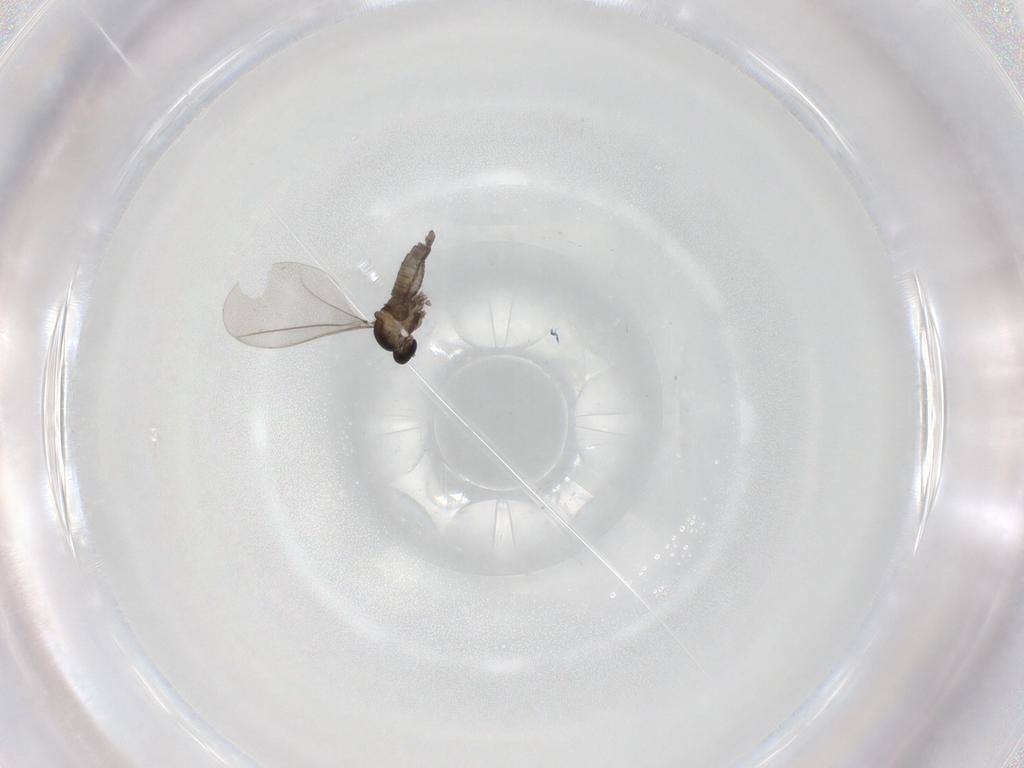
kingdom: Animalia
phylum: Arthropoda
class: Insecta
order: Diptera
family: Cecidomyiidae
